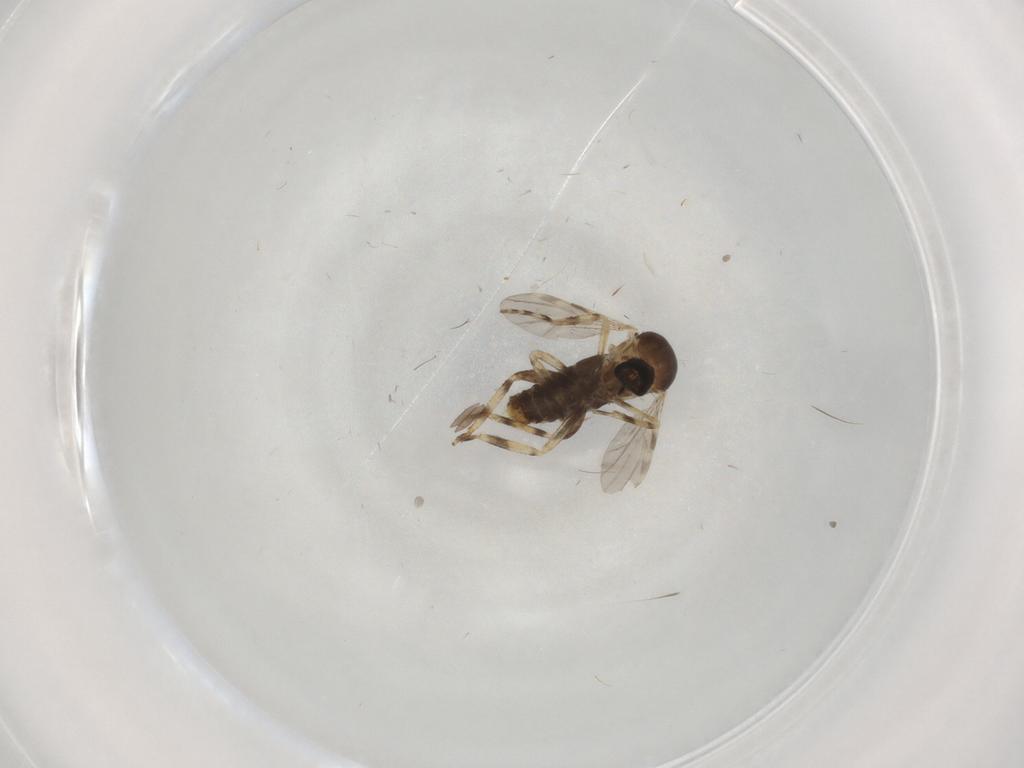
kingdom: Animalia
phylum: Arthropoda
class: Insecta
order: Diptera
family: Ceratopogonidae
